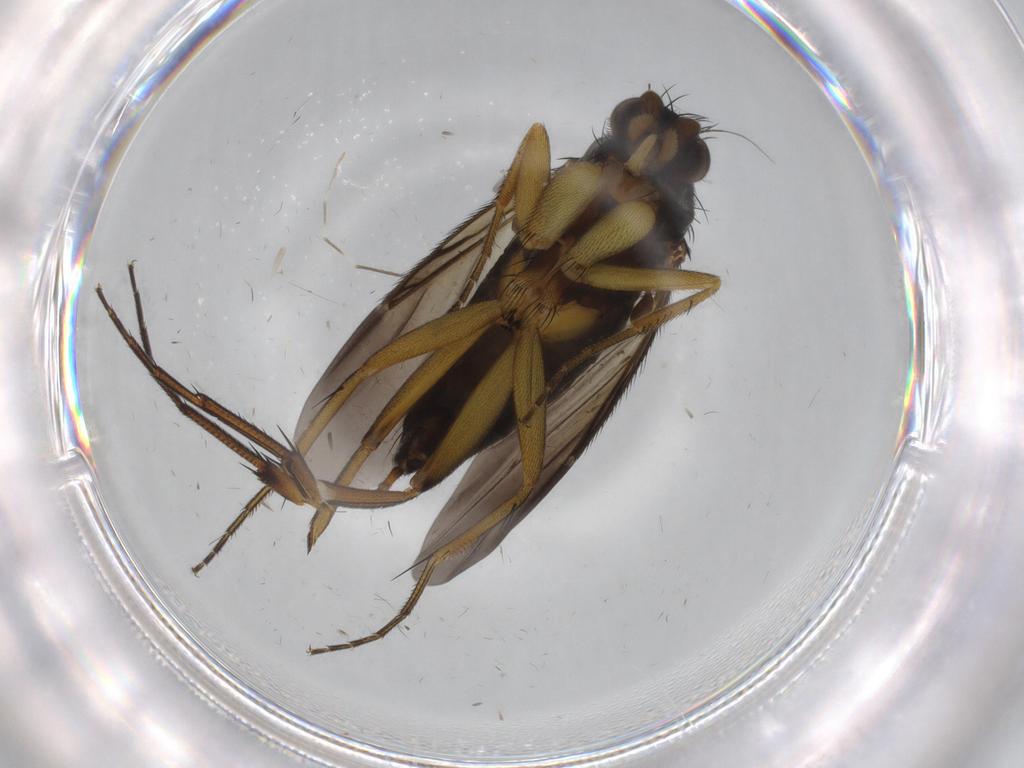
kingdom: Animalia
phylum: Arthropoda
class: Insecta
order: Diptera
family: Phoridae
